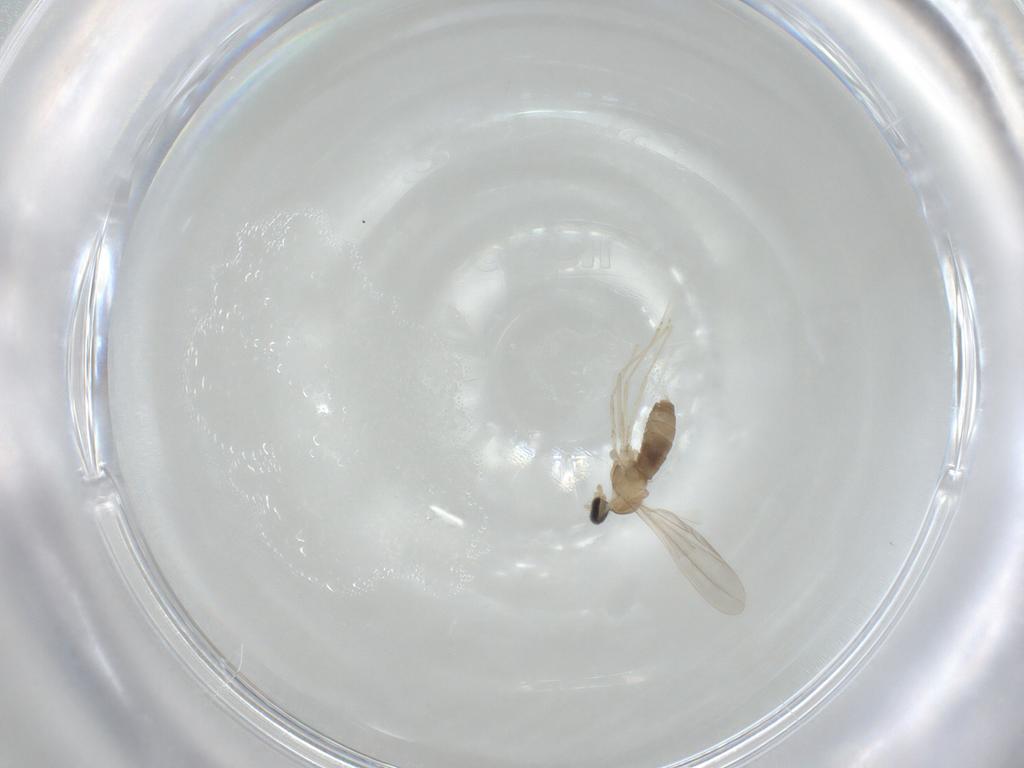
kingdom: Animalia
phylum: Arthropoda
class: Insecta
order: Diptera
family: Cecidomyiidae
